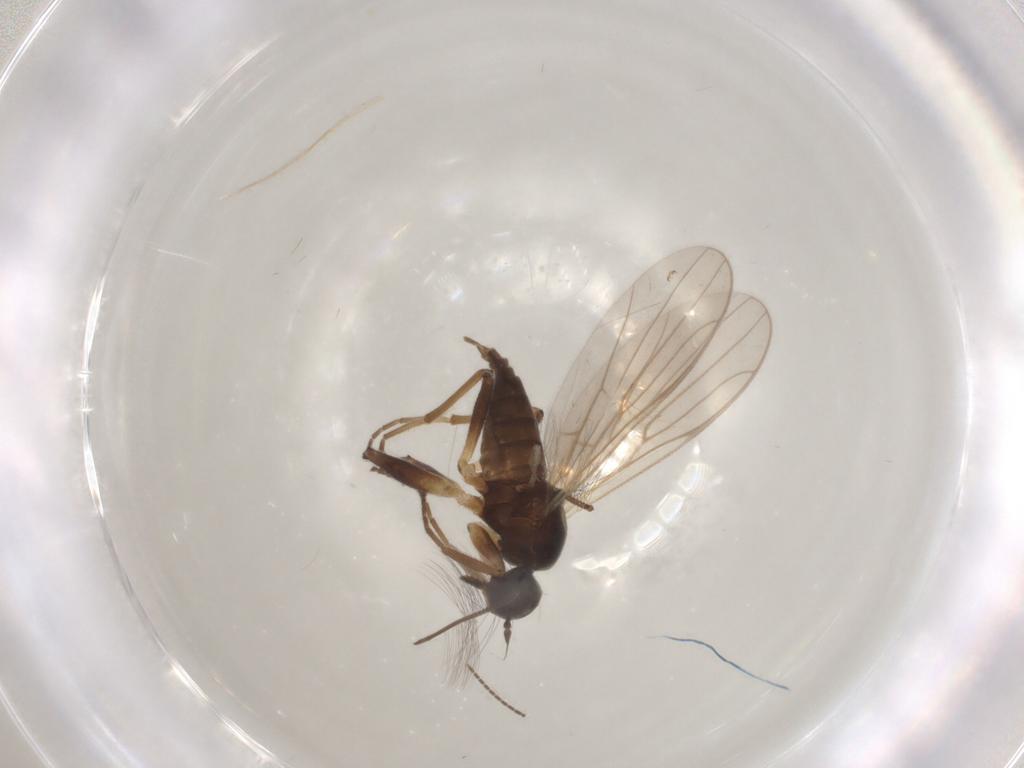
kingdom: Animalia
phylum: Arthropoda
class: Insecta
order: Diptera
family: Hybotidae
